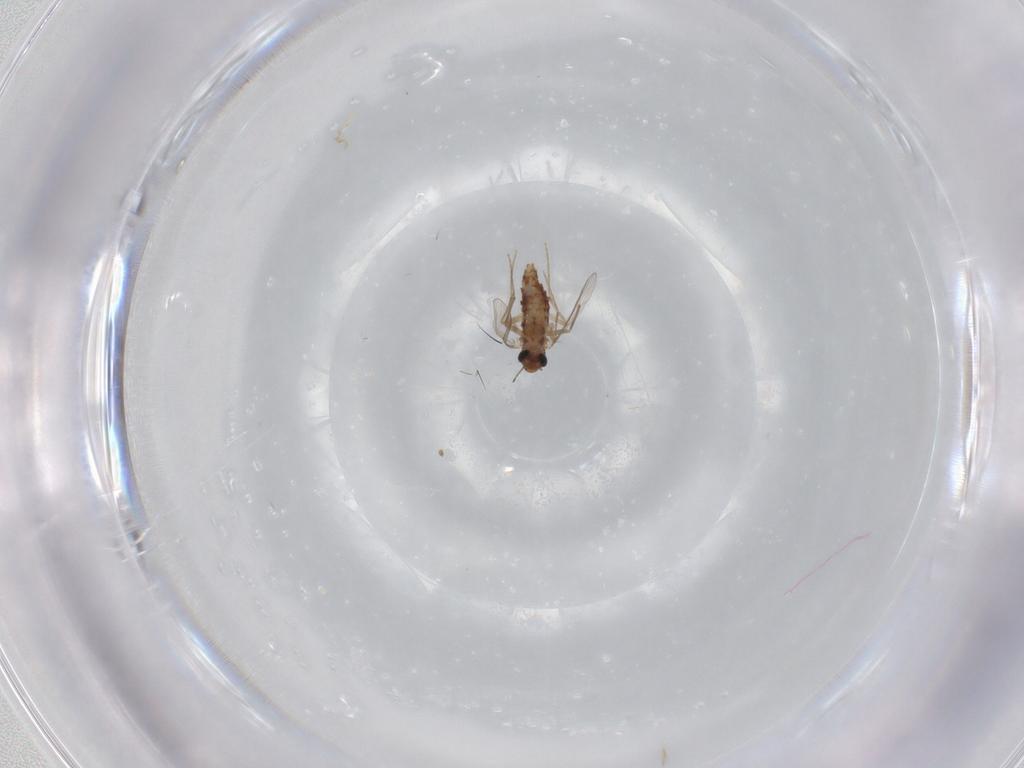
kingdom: Animalia
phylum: Arthropoda
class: Insecta
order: Diptera
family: Chironomidae
